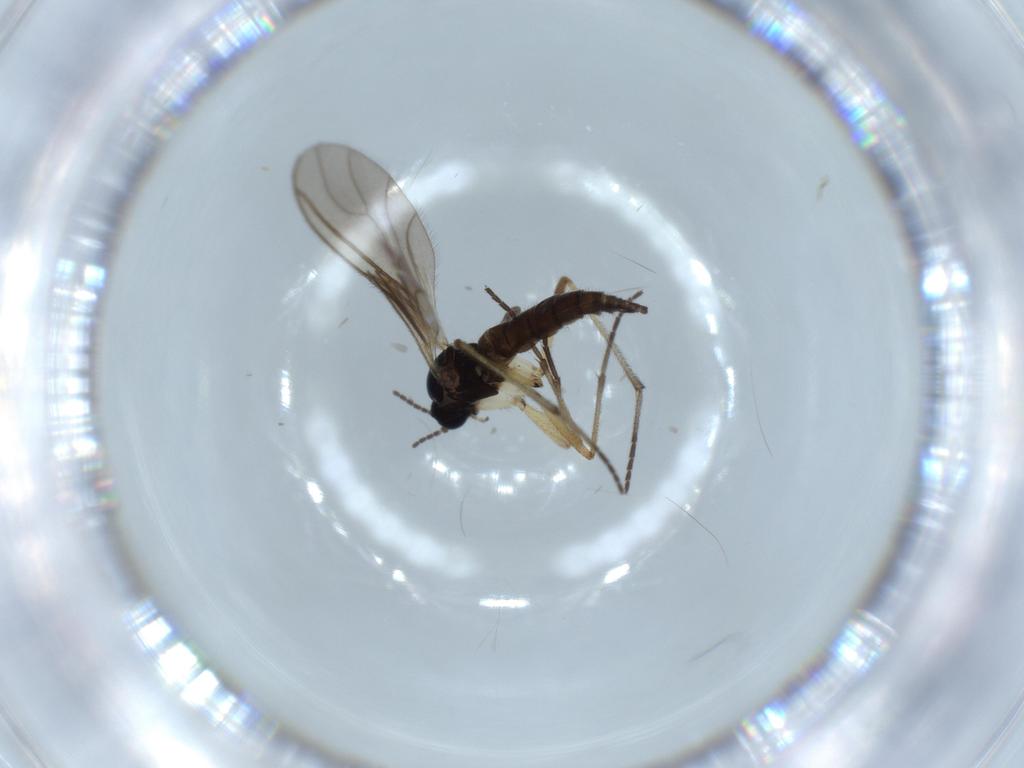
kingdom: Animalia
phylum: Arthropoda
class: Insecta
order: Diptera
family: Sciaridae
